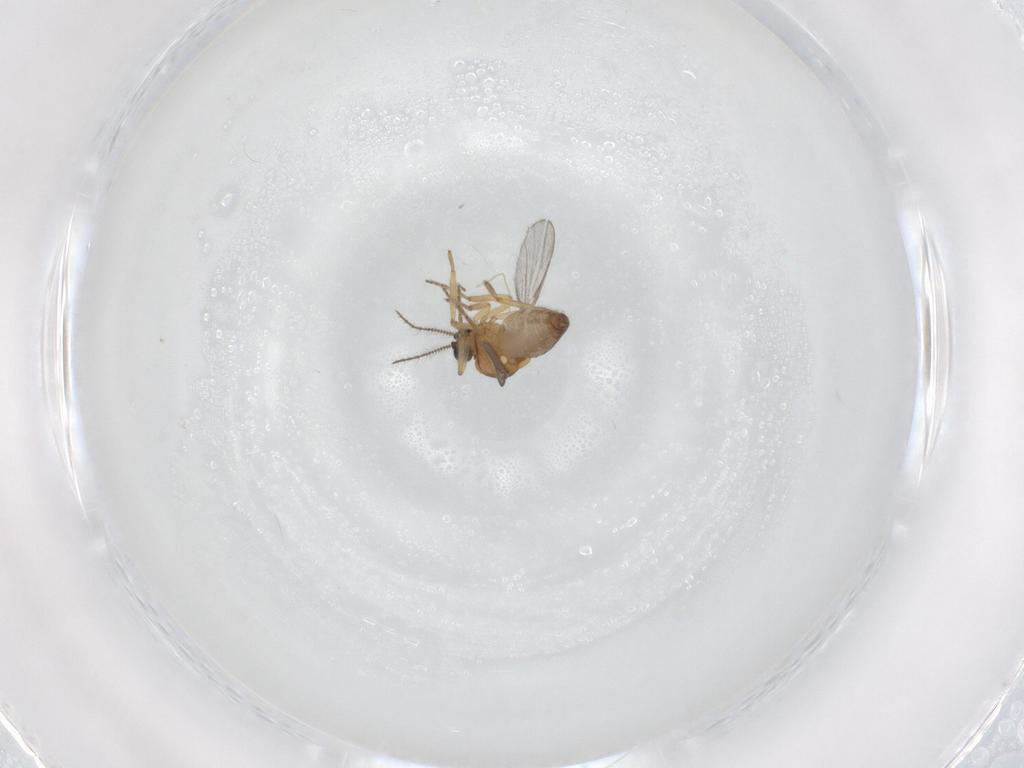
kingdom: Animalia
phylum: Arthropoda
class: Insecta
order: Diptera
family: Ceratopogonidae
